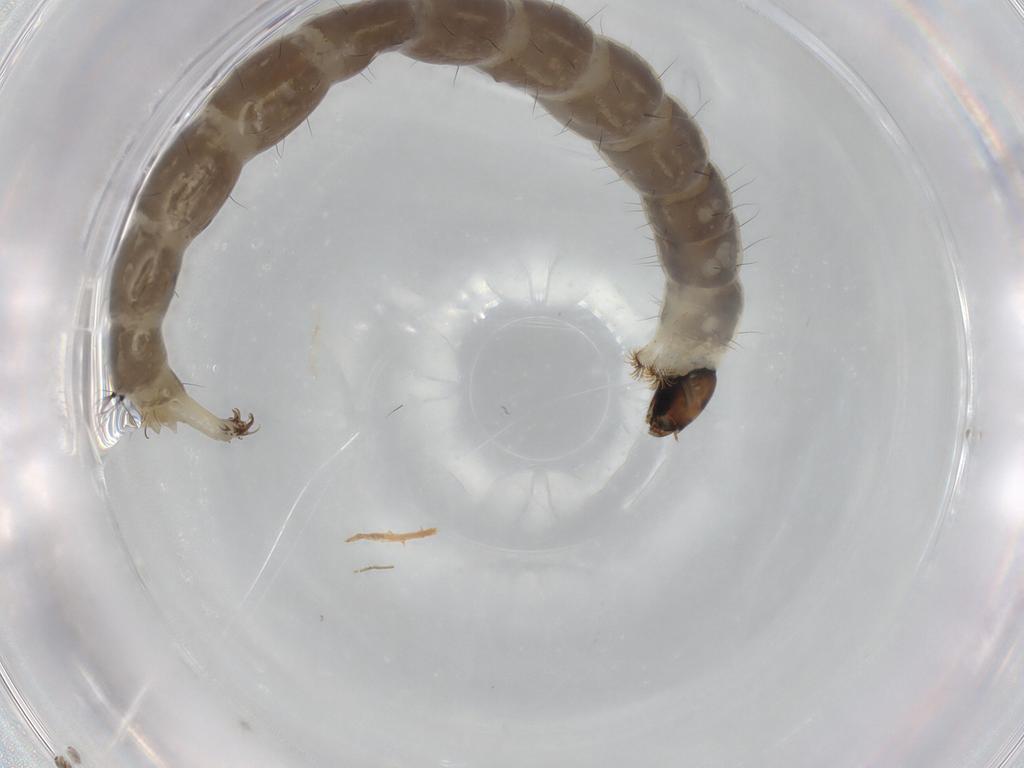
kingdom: Animalia
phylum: Arthropoda
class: Insecta
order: Diptera
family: Chironomidae
